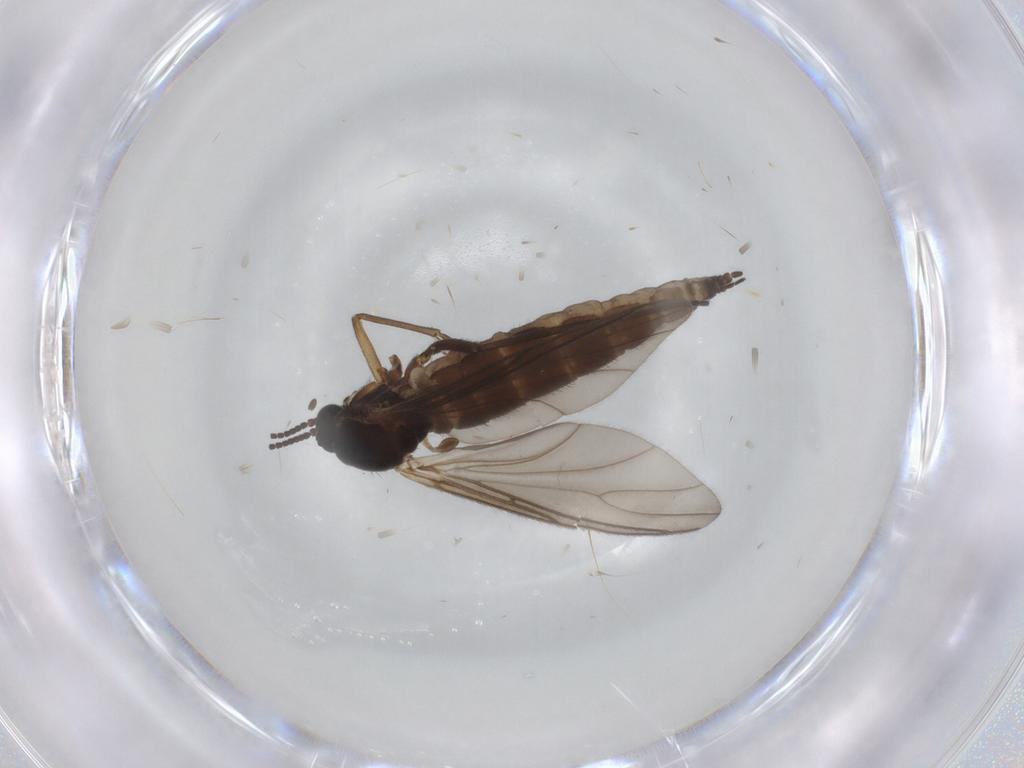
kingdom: Animalia
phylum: Arthropoda
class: Insecta
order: Diptera
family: Sciaridae
